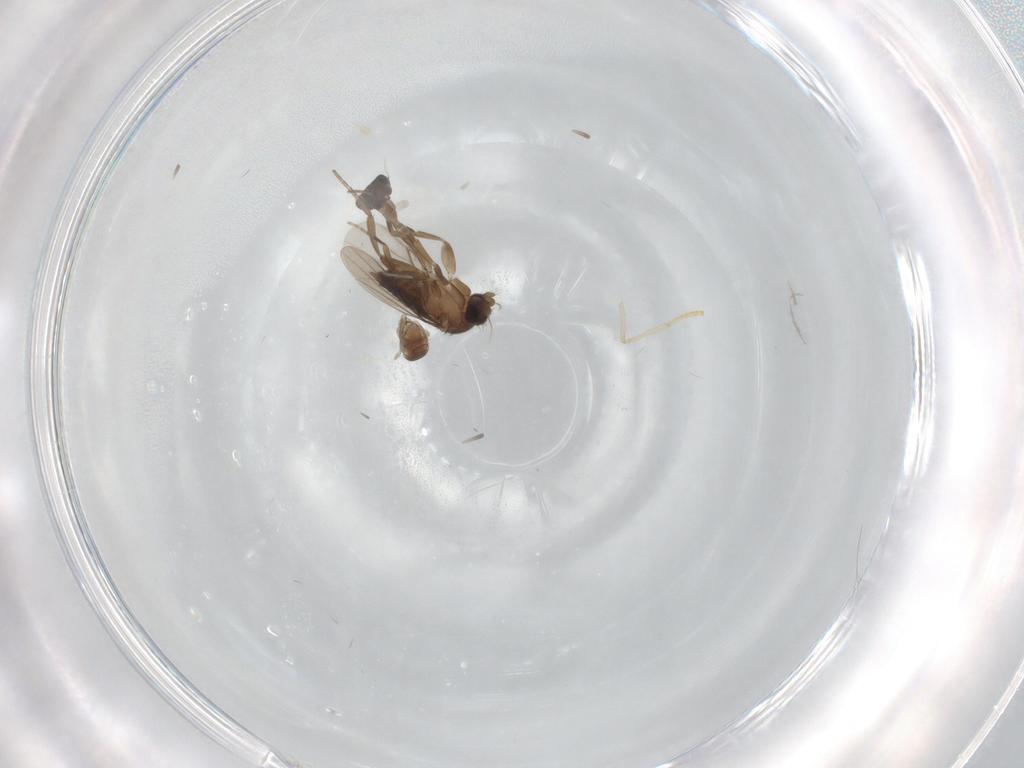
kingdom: Animalia
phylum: Arthropoda
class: Insecta
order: Diptera
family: Phoridae
